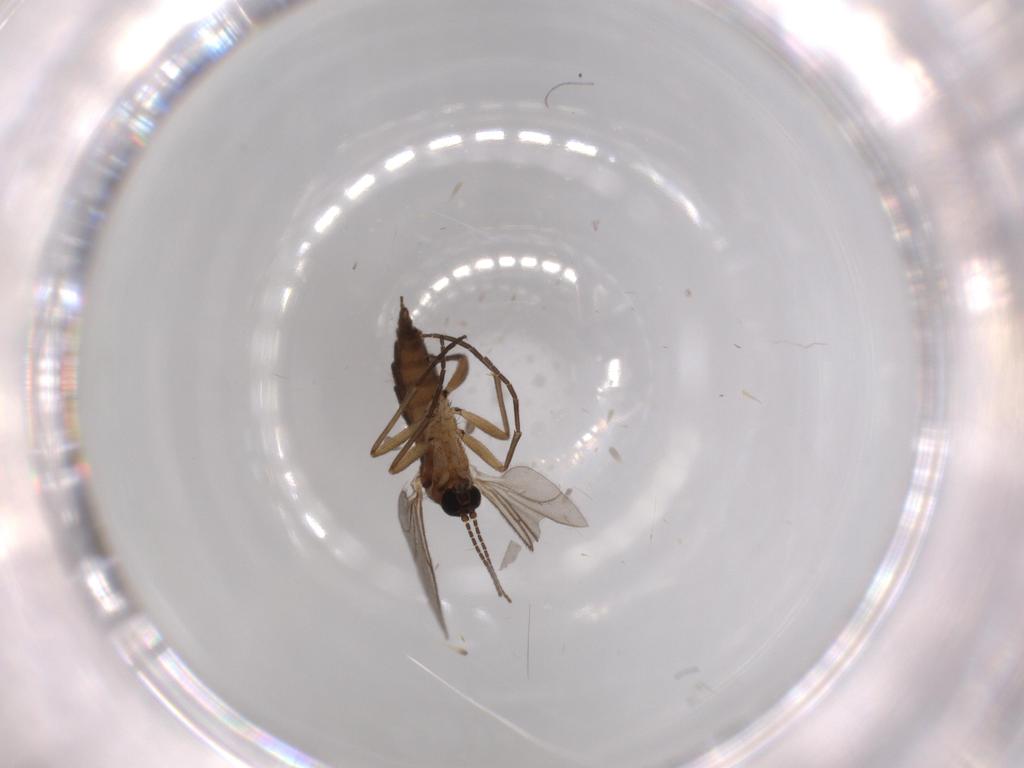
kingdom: Animalia
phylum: Arthropoda
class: Insecta
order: Diptera
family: Sciaridae
